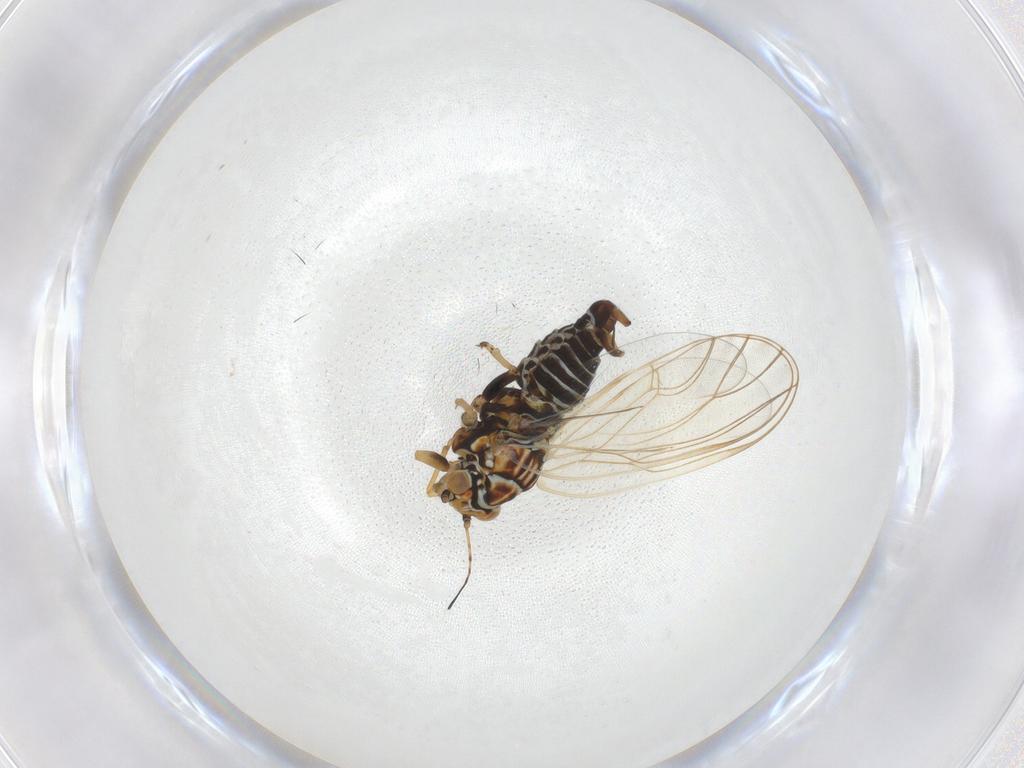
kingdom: Animalia
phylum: Arthropoda
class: Insecta
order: Hemiptera
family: Psyllidae
